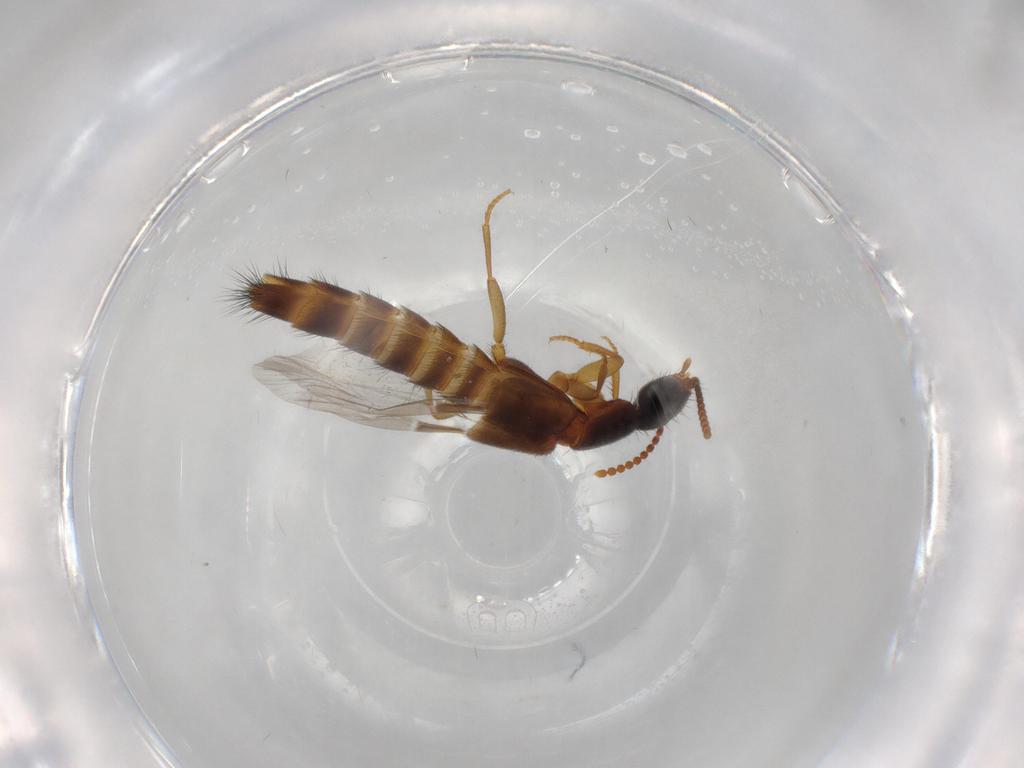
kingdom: Animalia
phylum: Arthropoda
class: Insecta
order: Coleoptera
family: Staphylinidae
